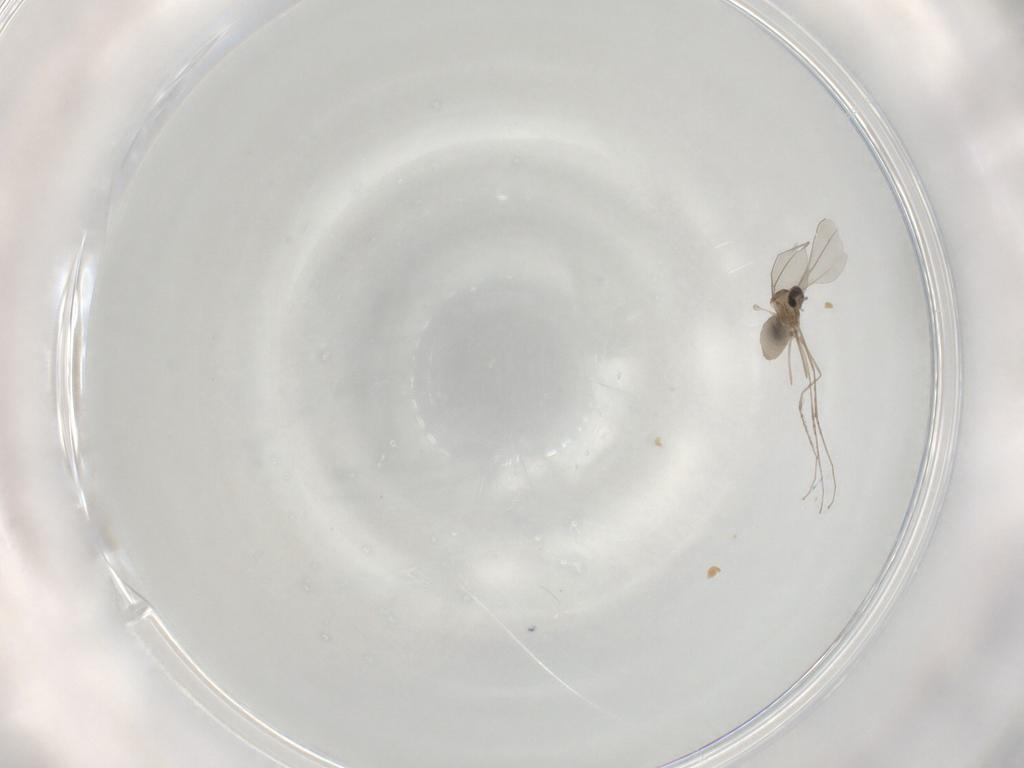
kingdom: Animalia
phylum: Arthropoda
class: Insecta
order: Diptera
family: Cecidomyiidae
